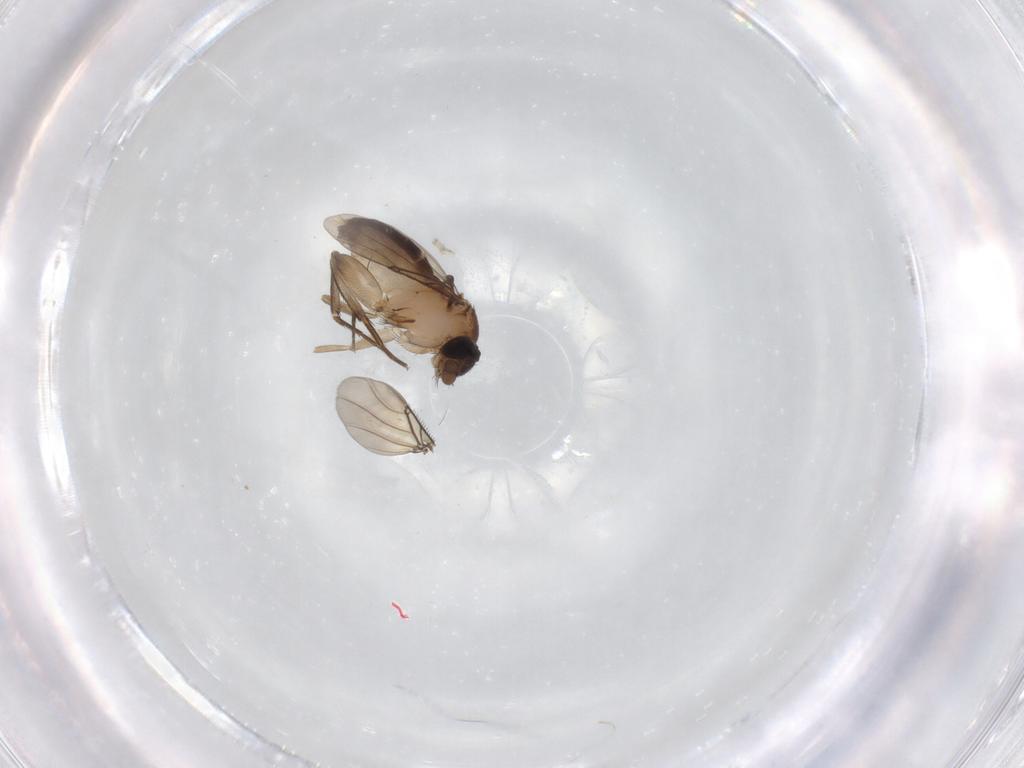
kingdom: Animalia
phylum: Arthropoda
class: Insecta
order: Diptera
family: Phoridae
